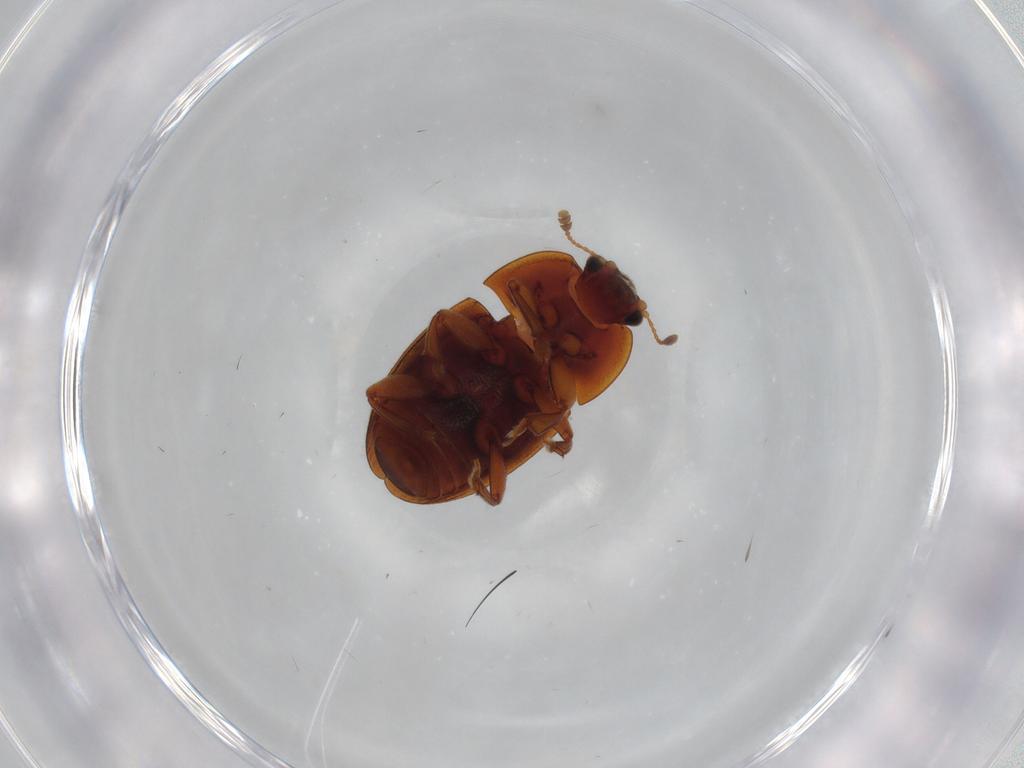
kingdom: Animalia
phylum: Arthropoda
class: Insecta
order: Coleoptera
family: Nitidulidae
